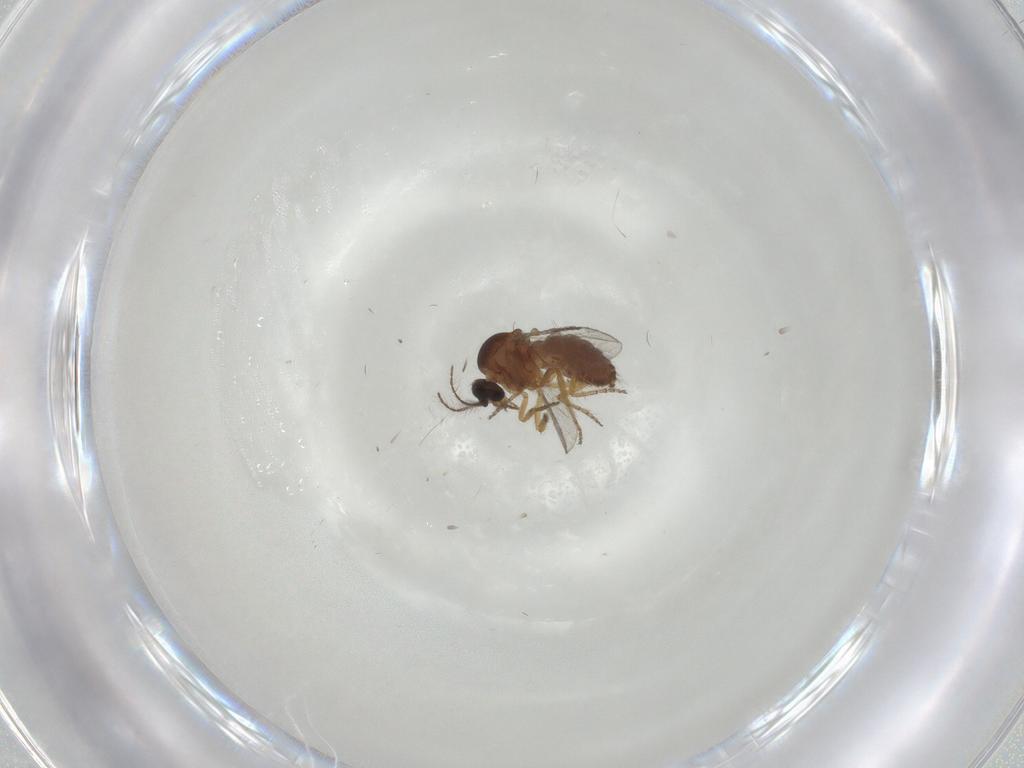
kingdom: Animalia
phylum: Arthropoda
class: Insecta
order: Diptera
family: Ceratopogonidae
